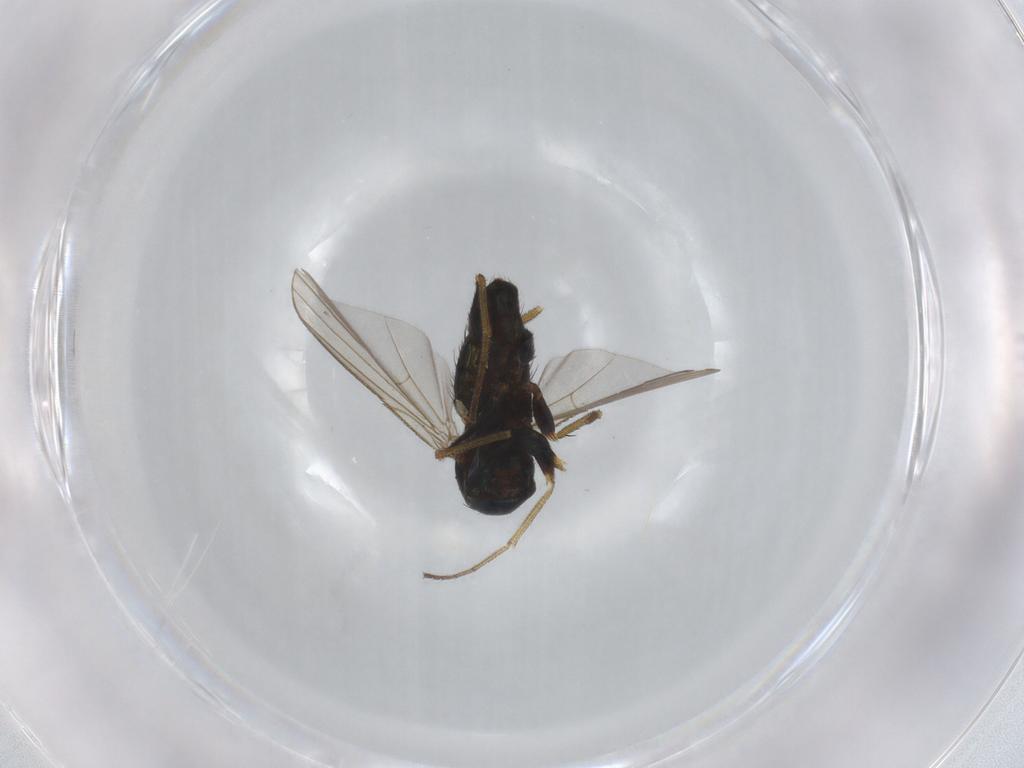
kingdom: Animalia
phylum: Arthropoda
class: Insecta
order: Diptera
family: Dolichopodidae
